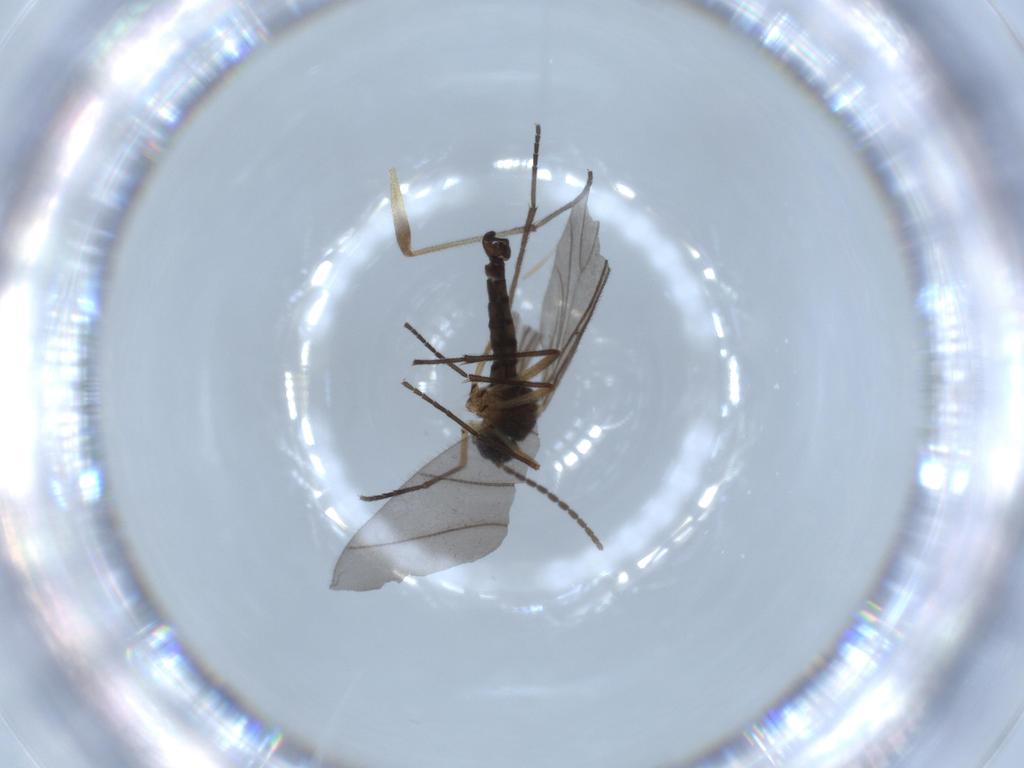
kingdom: Animalia
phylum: Arthropoda
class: Insecta
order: Diptera
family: Sciaridae
